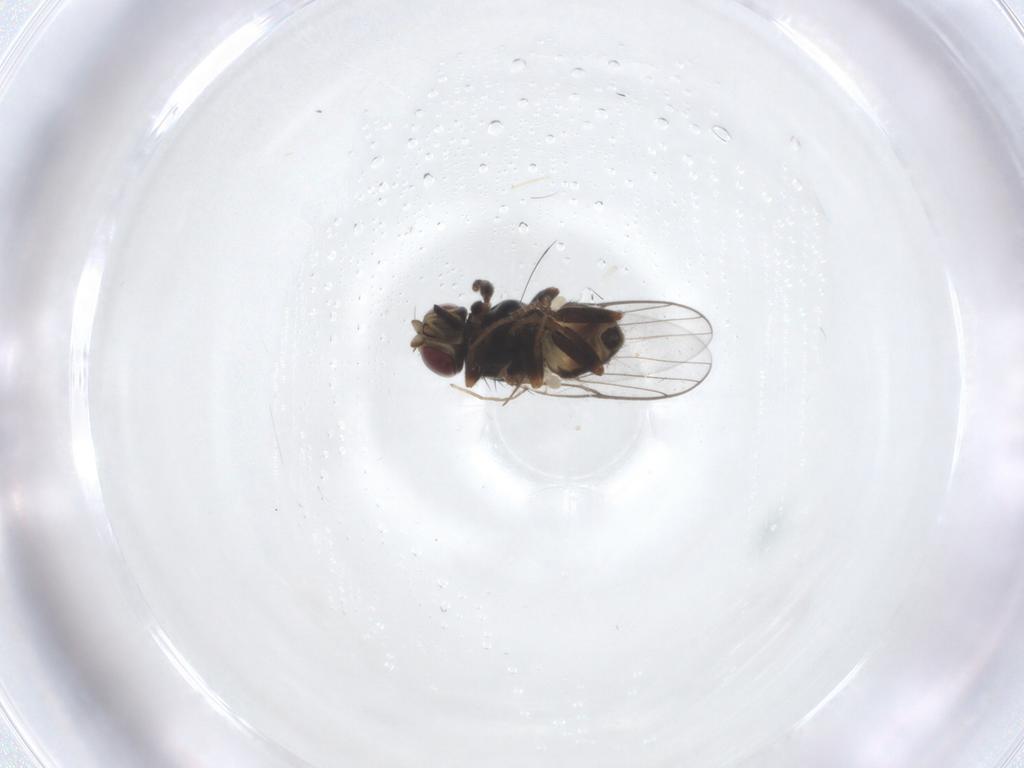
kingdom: Animalia
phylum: Arthropoda
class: Insecta
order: Diptera
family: Chloropidae
